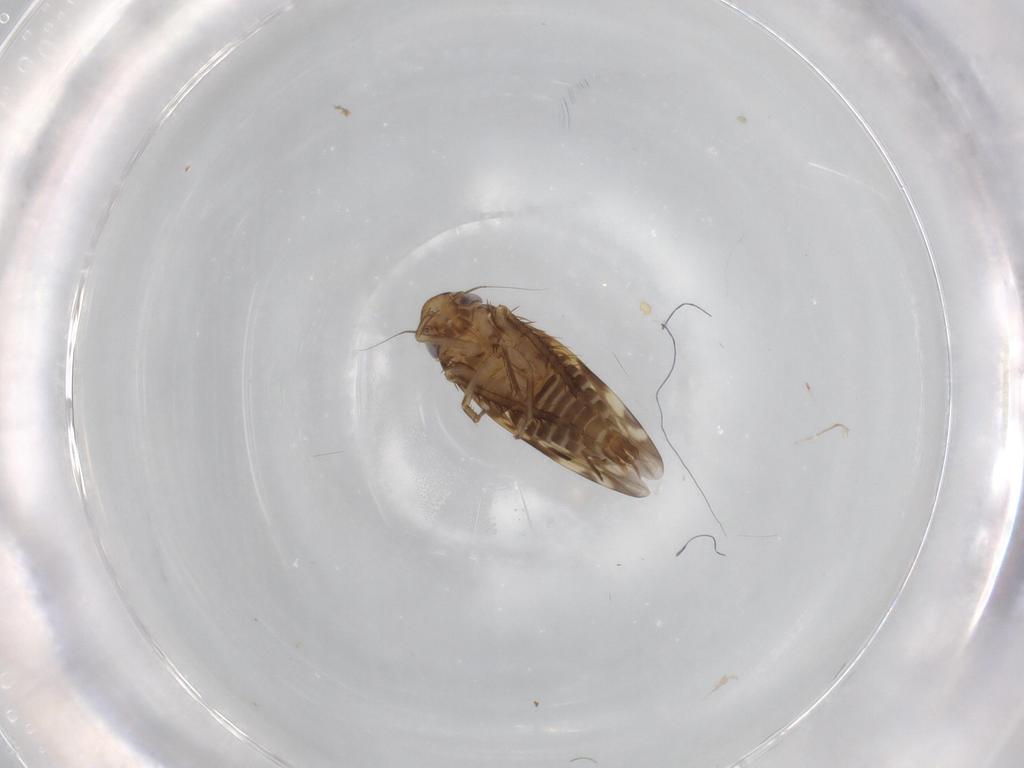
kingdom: Animalia
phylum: Arthropoda
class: Insecta
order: Hemiptera
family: Cicadellidae
